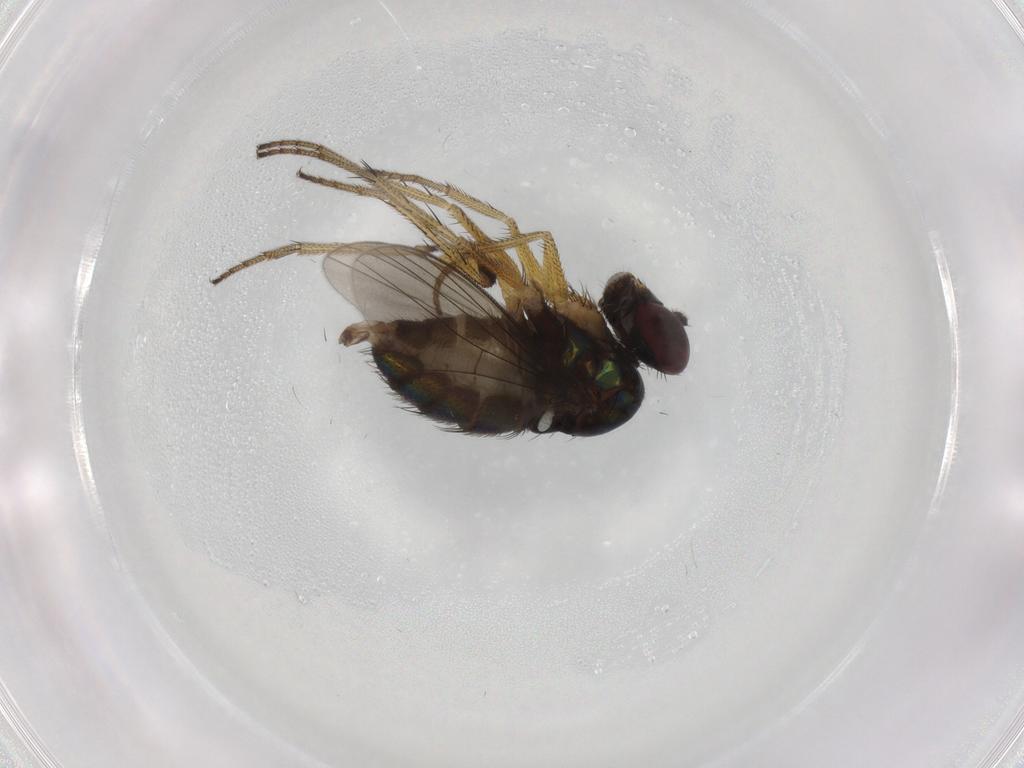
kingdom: Animalia
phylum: Arthropoda
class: Insecta
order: Diptera
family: Dolichopodidae
